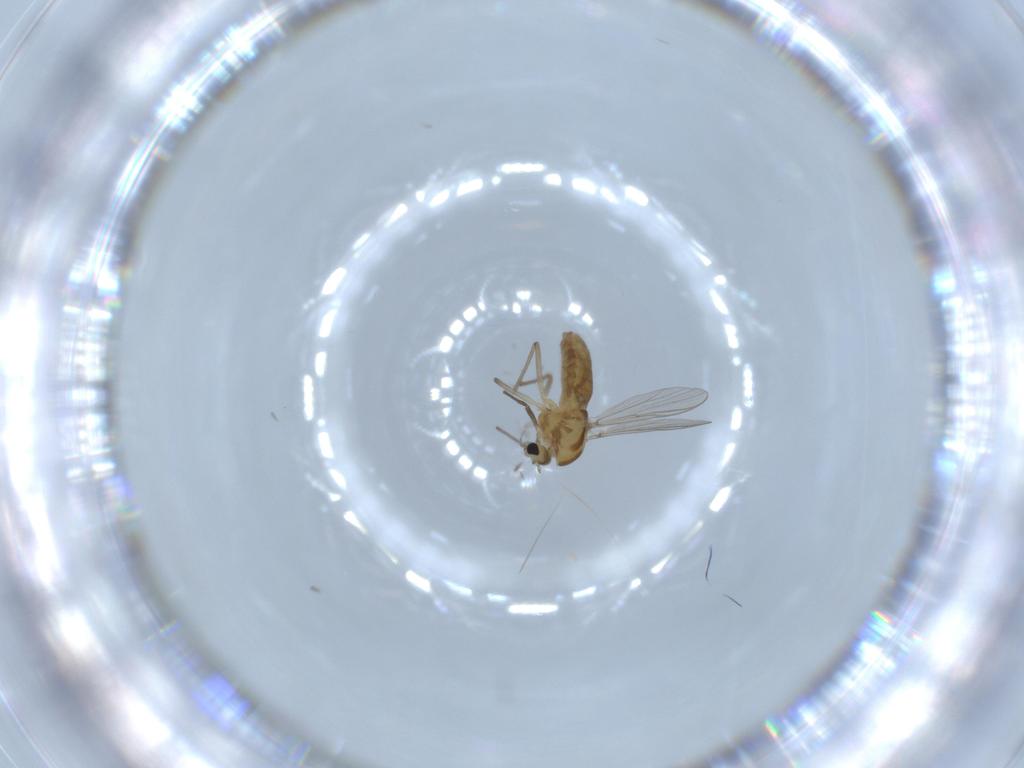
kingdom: Animalia
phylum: Arthropoda
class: Insecta
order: Diptera
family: Chironomidae
